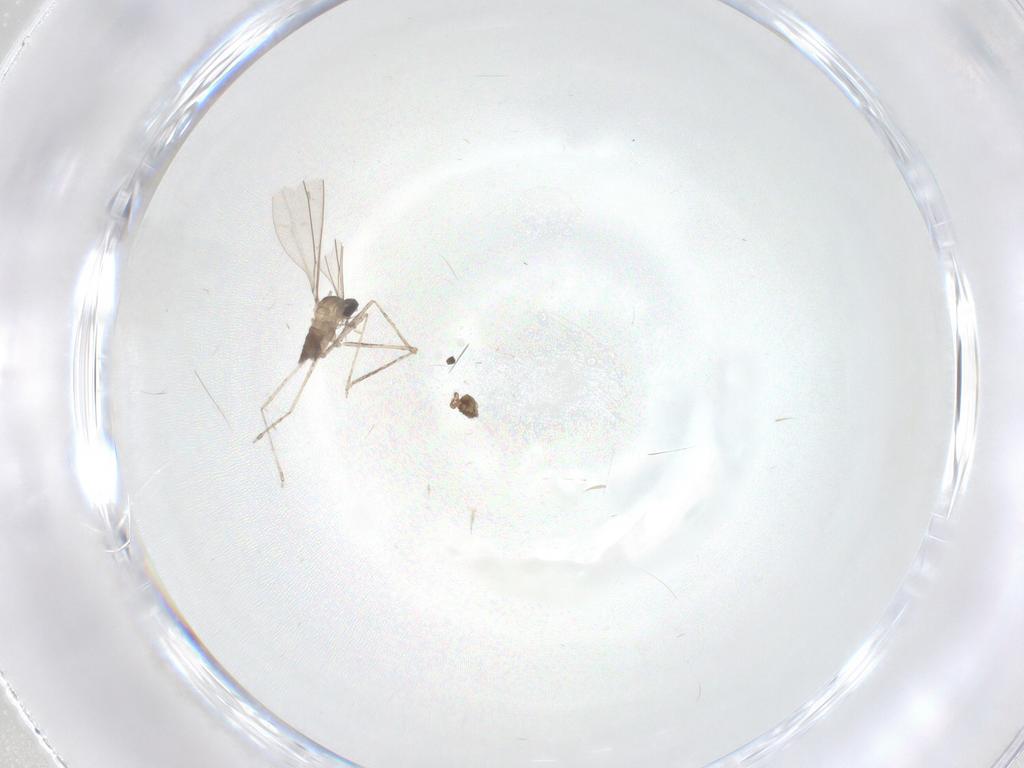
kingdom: Animalia
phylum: Arthropoda
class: Insecta
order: Diptera
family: Cecidomyiidae
